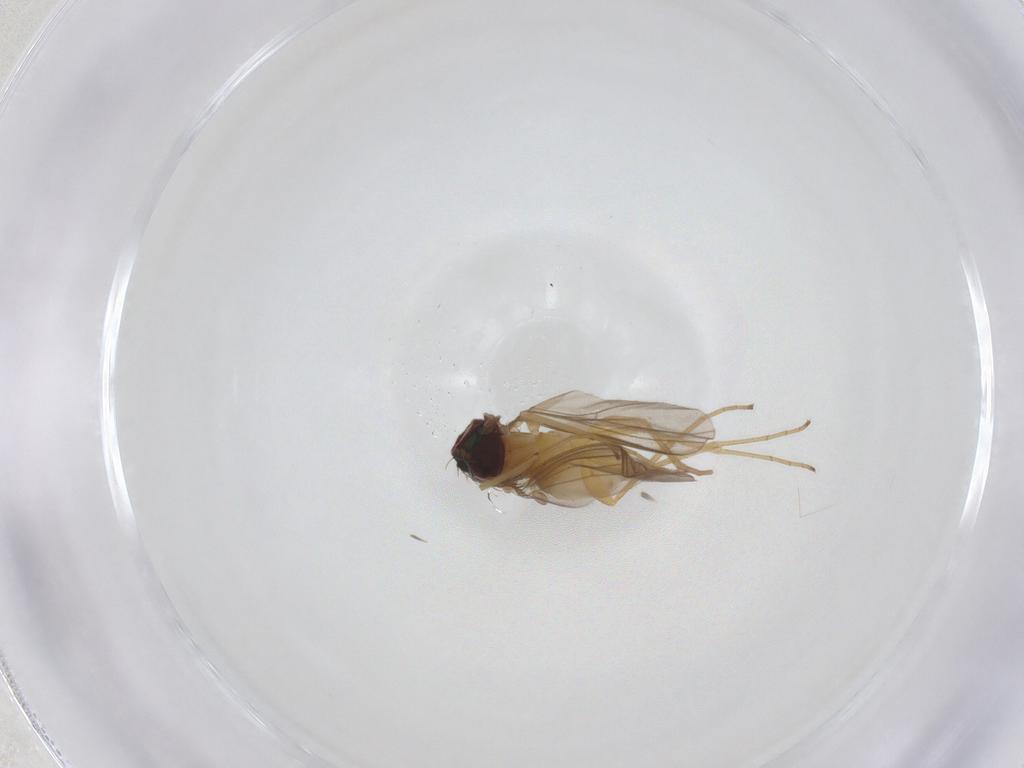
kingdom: Animalia
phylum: Arthropoda
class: Insecta
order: Diptera
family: Dolichopodidae
